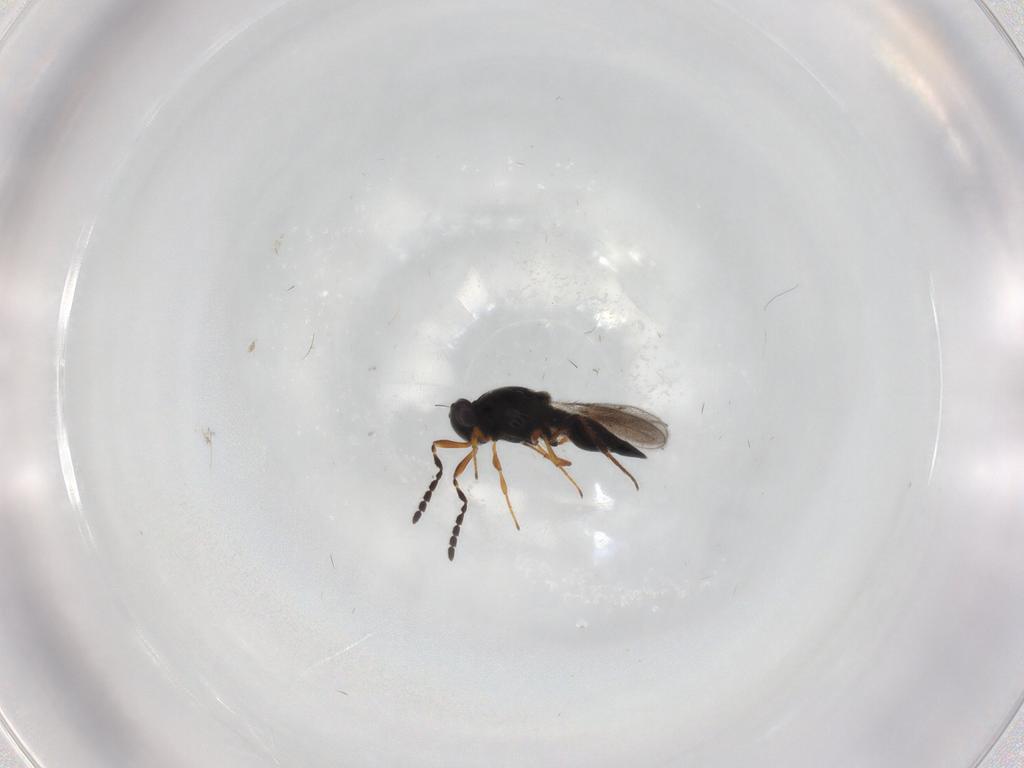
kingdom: Animalia
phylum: Arthropoda
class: Insecta
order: Hymenoptera
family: Platygastridae
